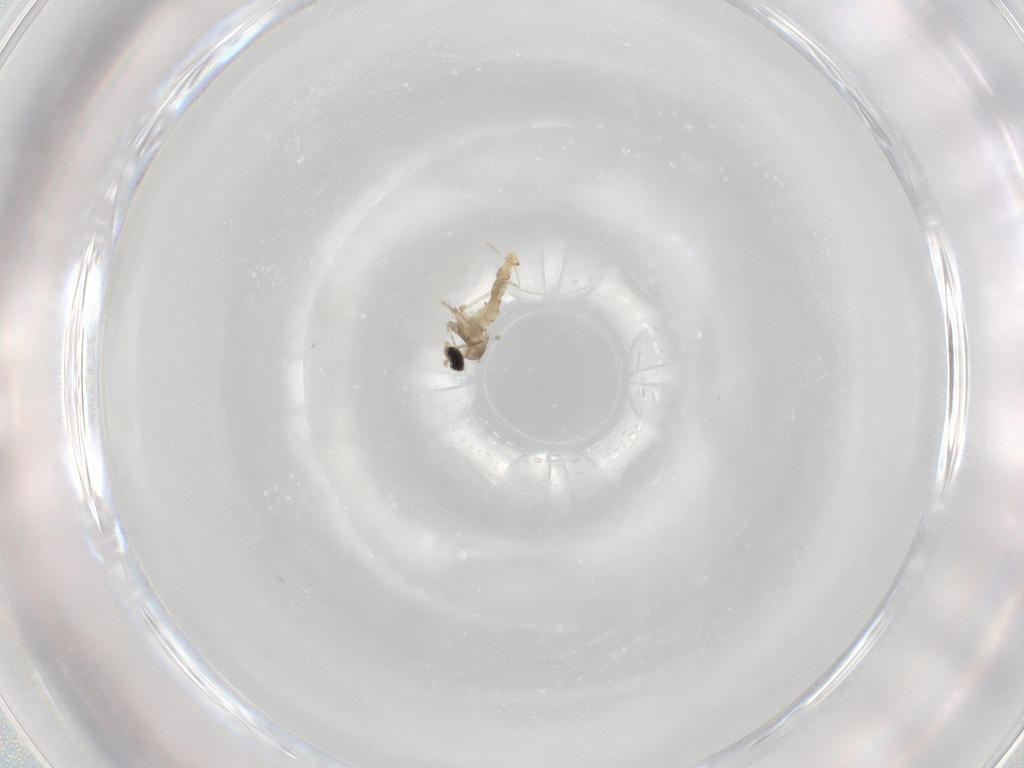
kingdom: Animalia
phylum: Arthropoda
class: Insecta
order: Diptera
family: Cecidomyiidae
